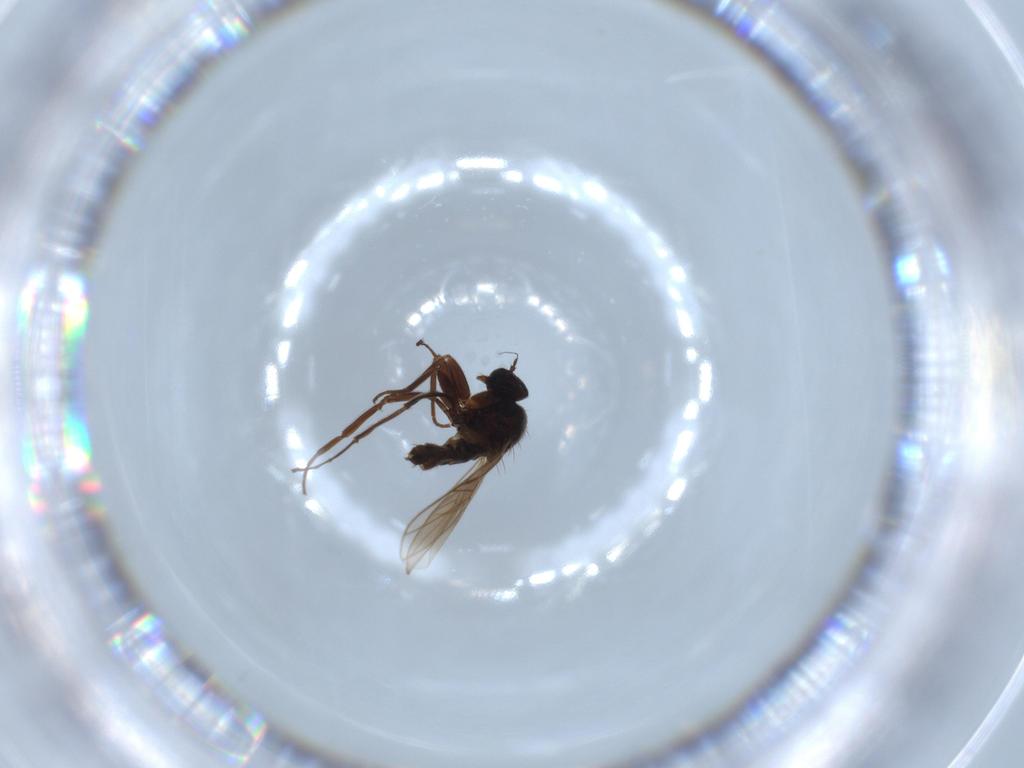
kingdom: Animalia
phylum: Arthropoda
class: Insecta
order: Diptera
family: Hybotidae
